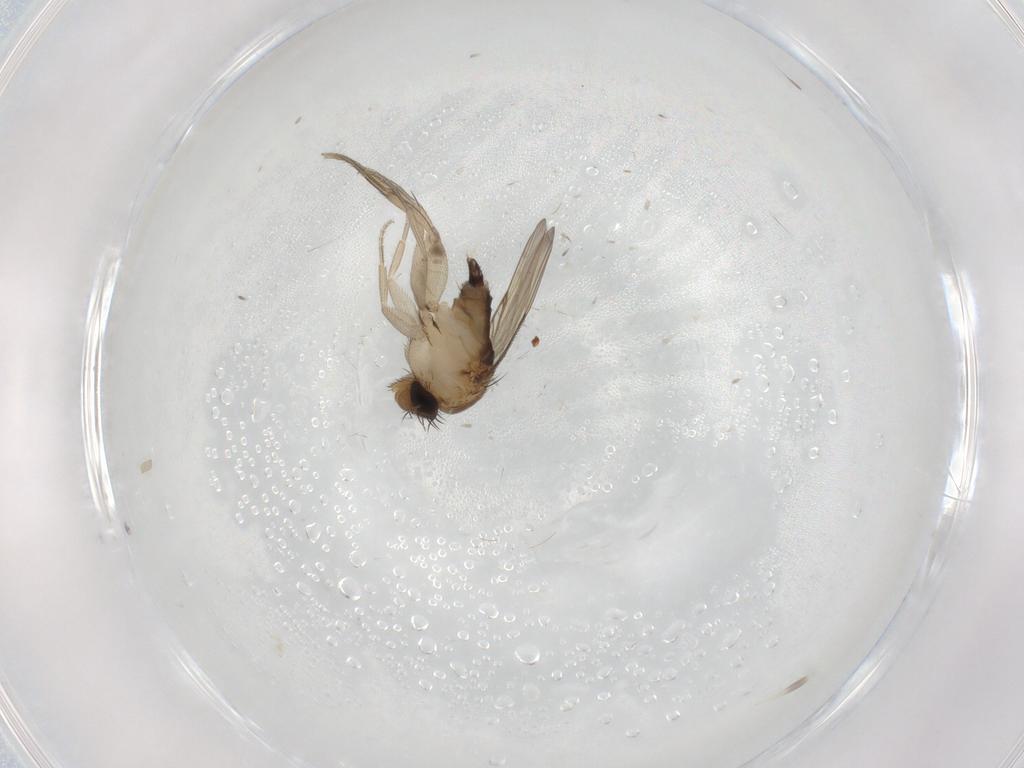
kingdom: Animalia
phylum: Arthropoda
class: Insecta
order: Diptera
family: Phoridae
